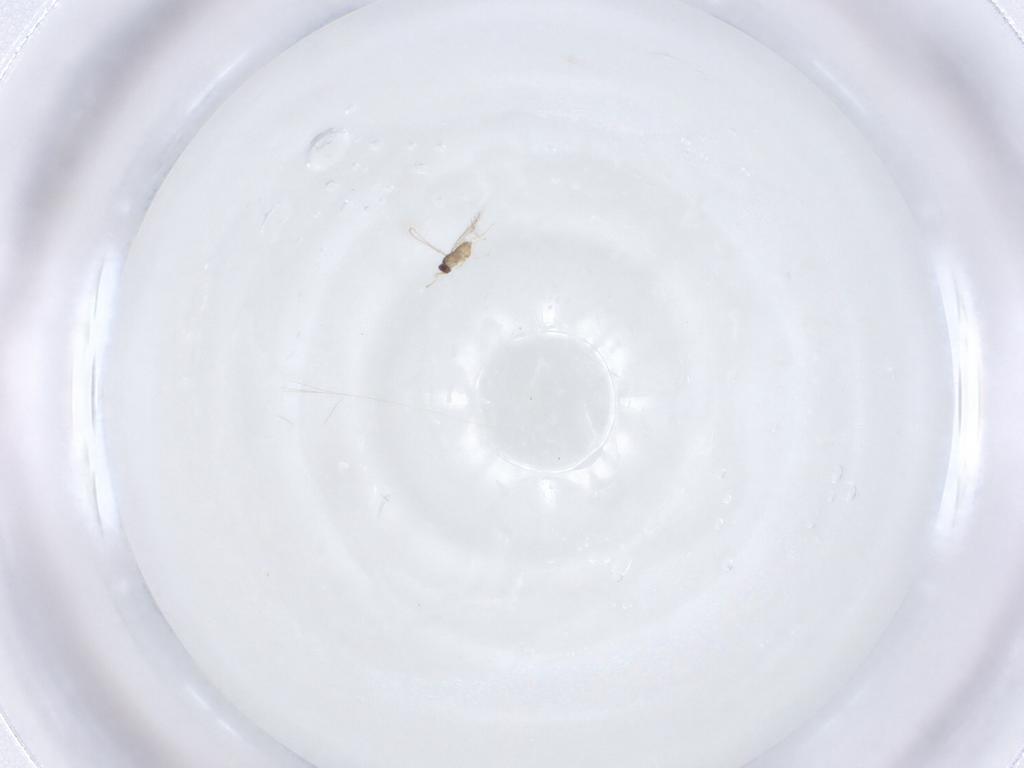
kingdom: Animalia
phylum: Arthropoda
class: Insecta
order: Hymenoptera
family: Mymaridae
